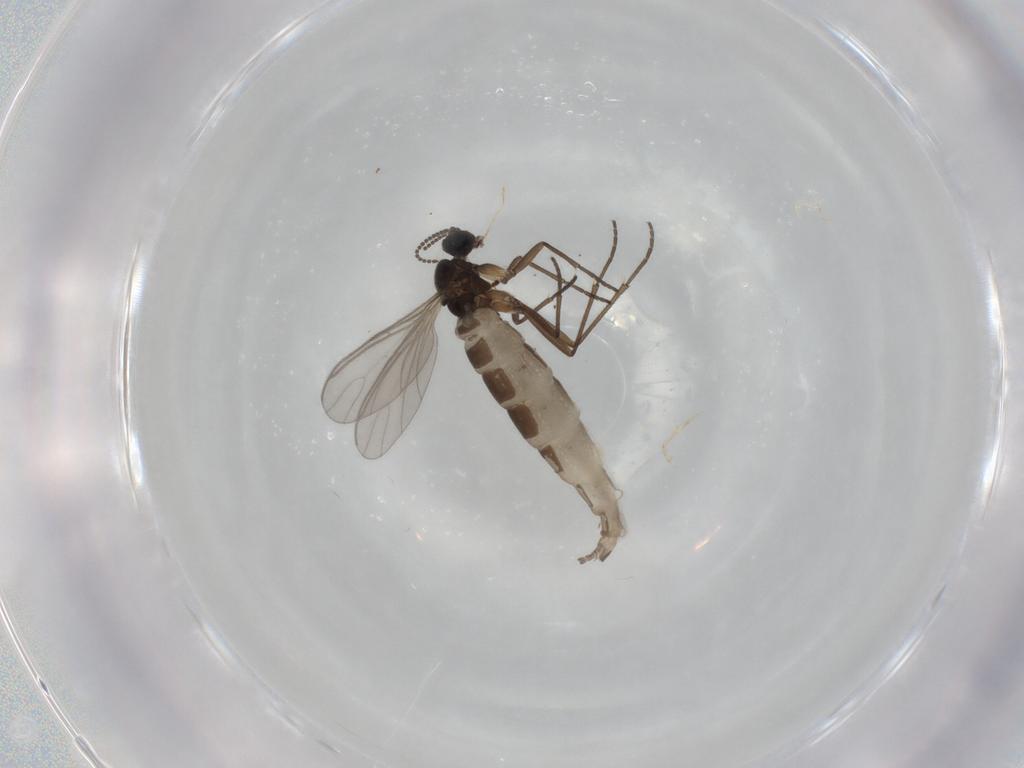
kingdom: Animalia
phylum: Arthropoda
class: Insecta
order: Diptera
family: Sciaridae
